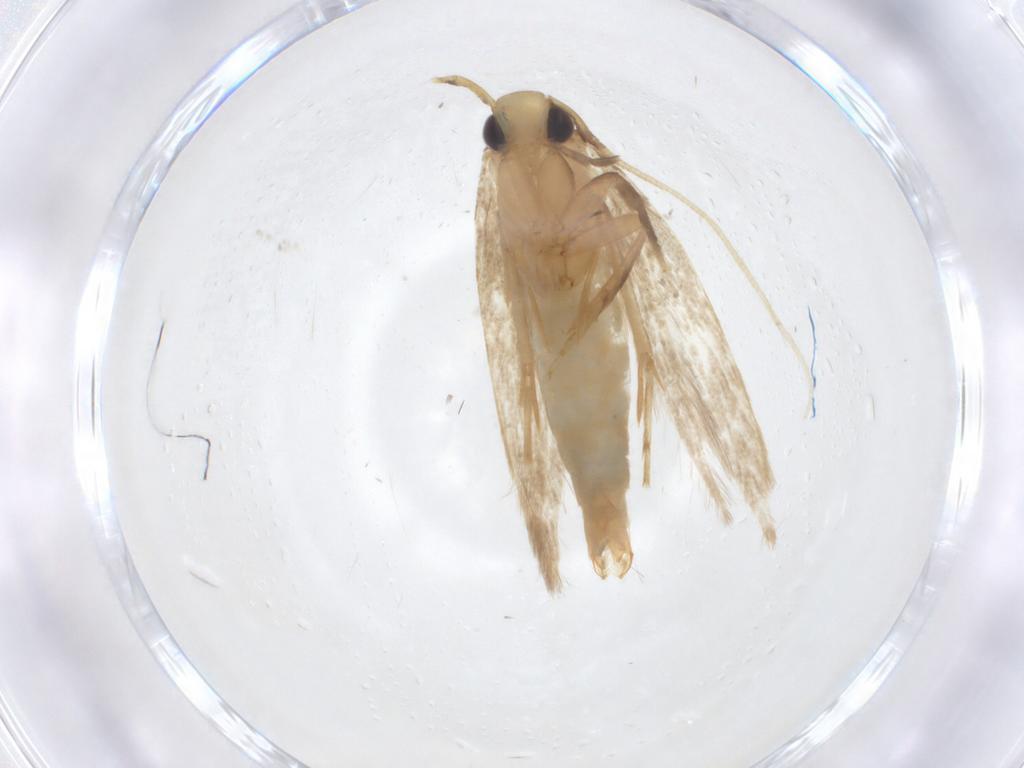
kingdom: Animalia
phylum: Arthropoda
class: Insecta
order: Lepidoptera
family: Tineidae
